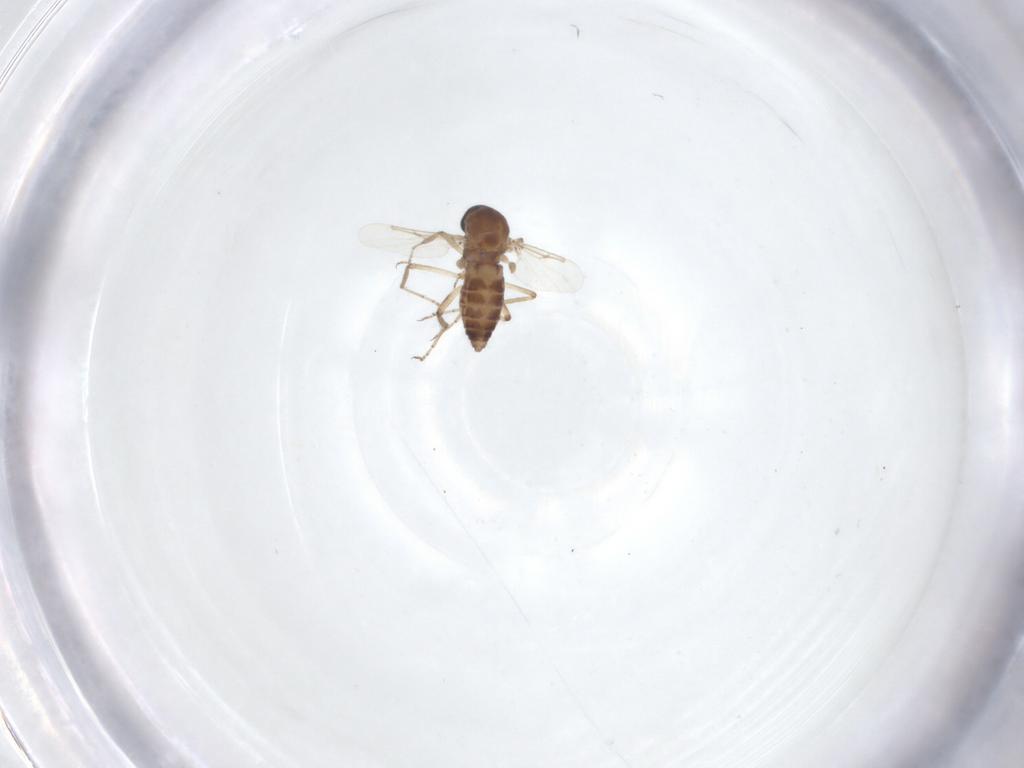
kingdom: Animalia
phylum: Arthropoda
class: Insecta
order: Diptera
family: Ceratopogonidae
